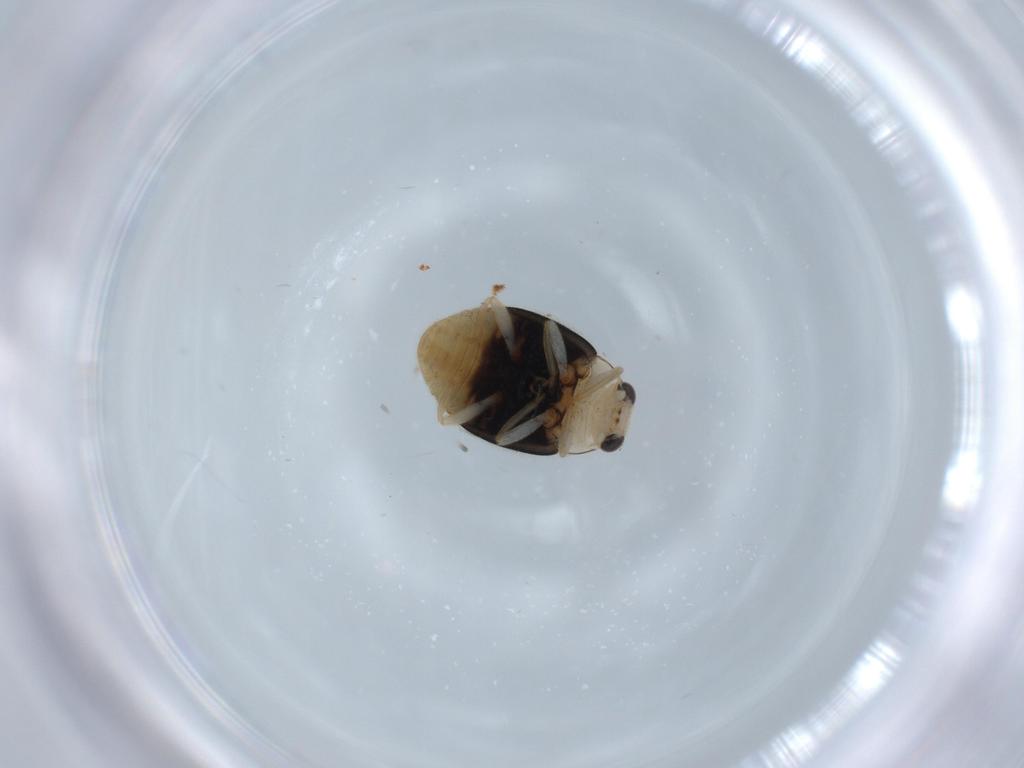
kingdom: Animalia
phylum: Arthropoda
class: Insecta
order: Coleoptera
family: Coccinellidae
